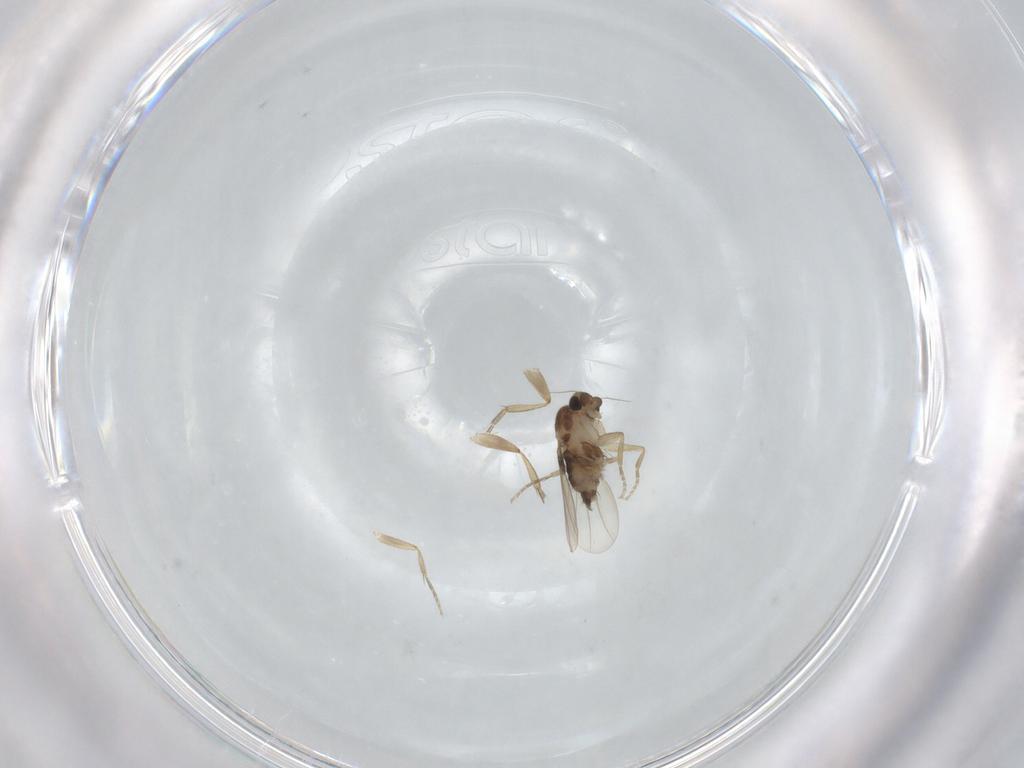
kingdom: Animalia
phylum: Arthropoda
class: Insecta
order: Diptera
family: Phoridae
